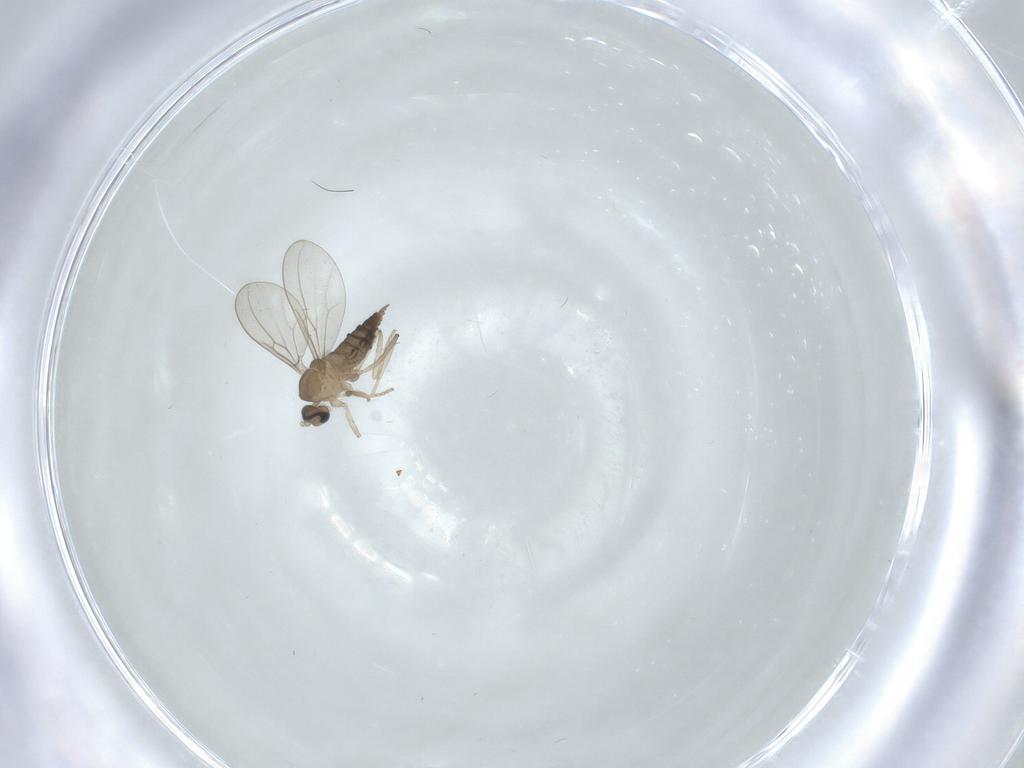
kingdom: Animalia
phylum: Arthropoda
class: Insecta
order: Diptera
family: Cecidomyiidae
